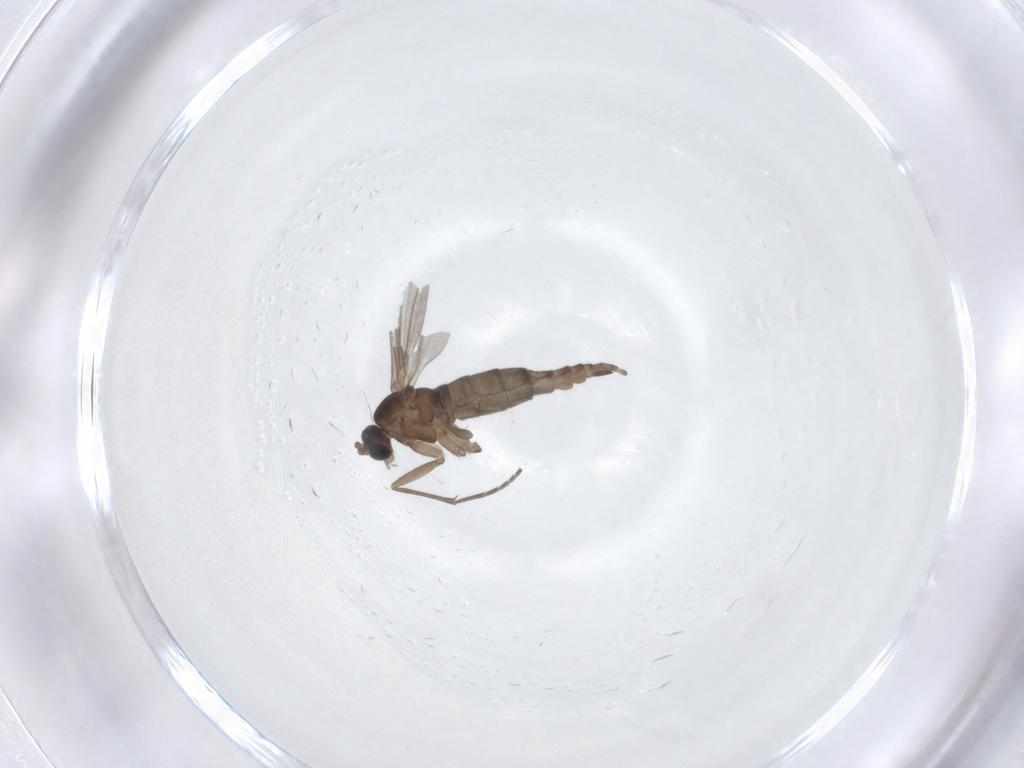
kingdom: Animalia
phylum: Arthropoda
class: Insecta
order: Diptera
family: Sciaridae
